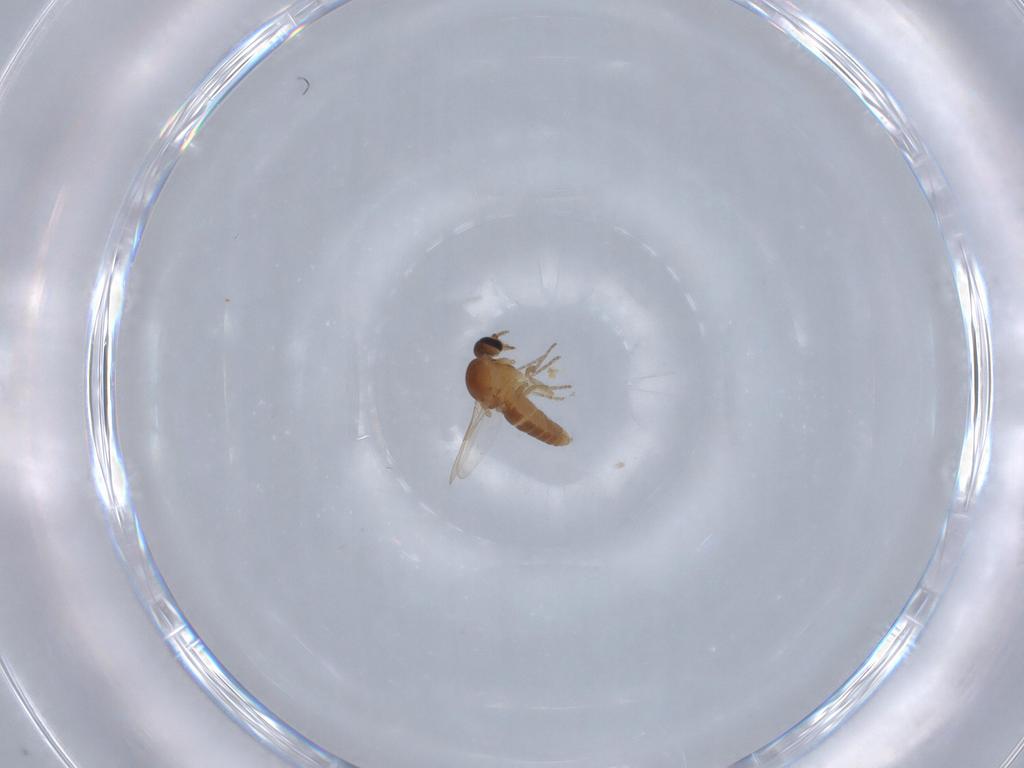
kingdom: Animalia
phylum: Arthropoda
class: Insecta
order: Diptera
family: Ceratopogonidae
